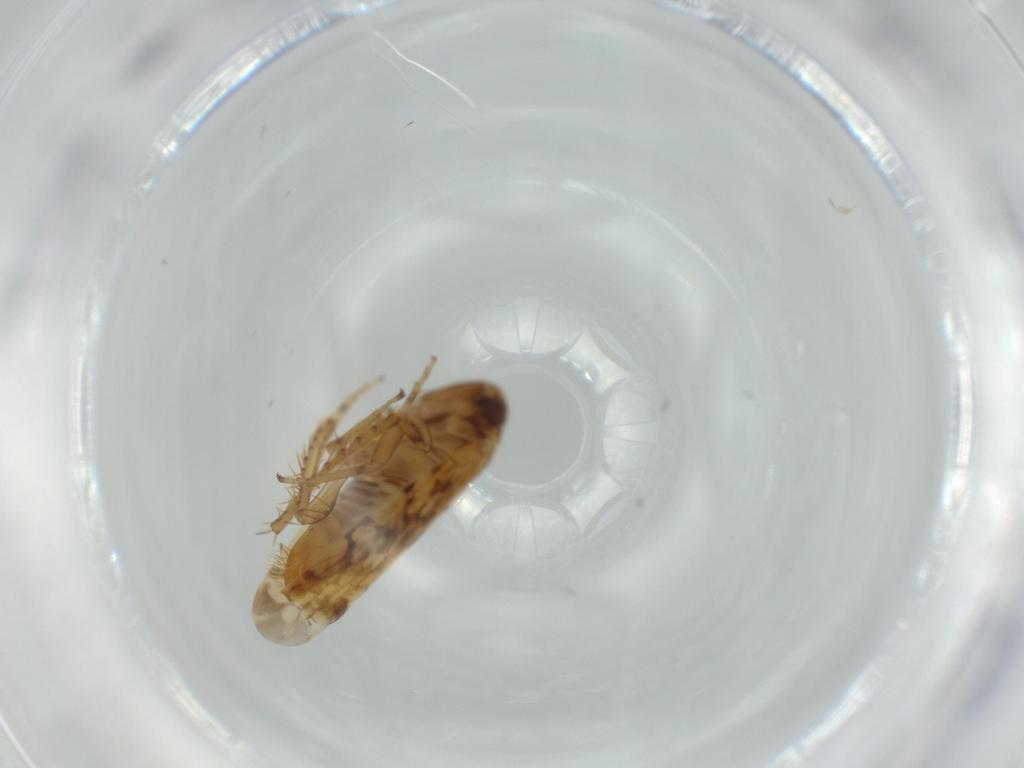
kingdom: Animalia
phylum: Arthropoda
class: Insecta
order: Hemiptera
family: Cicadellidae
